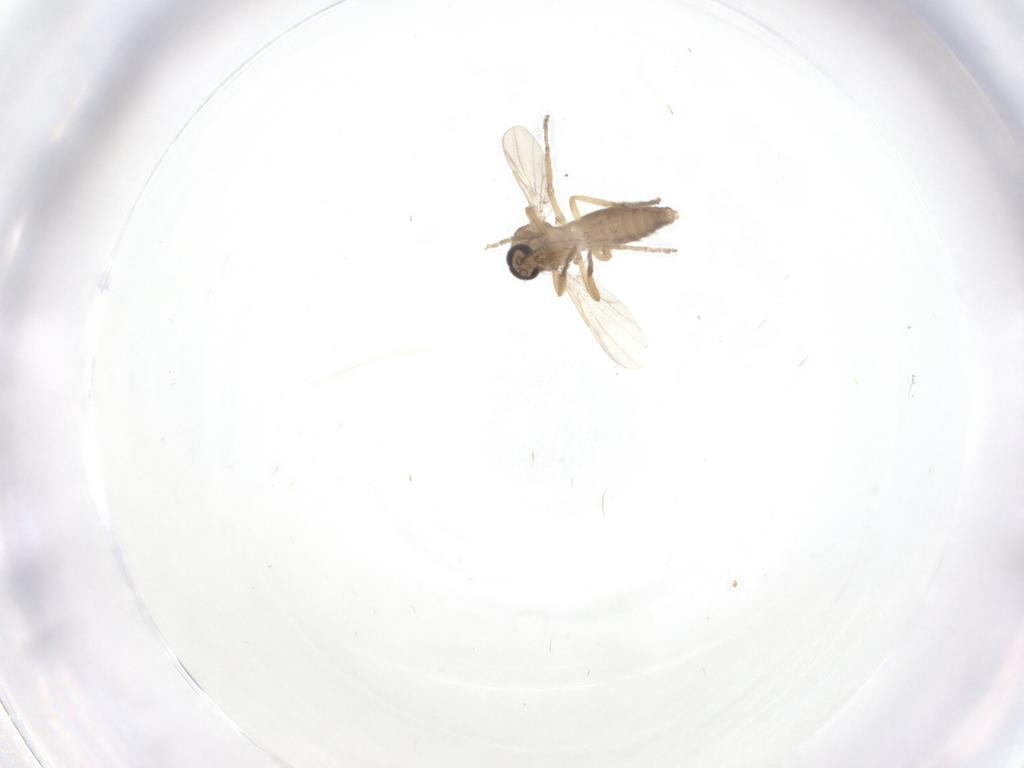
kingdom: Animalia
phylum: Arthropoda
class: Insecta
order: Diptera
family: Ceratopogonidae
